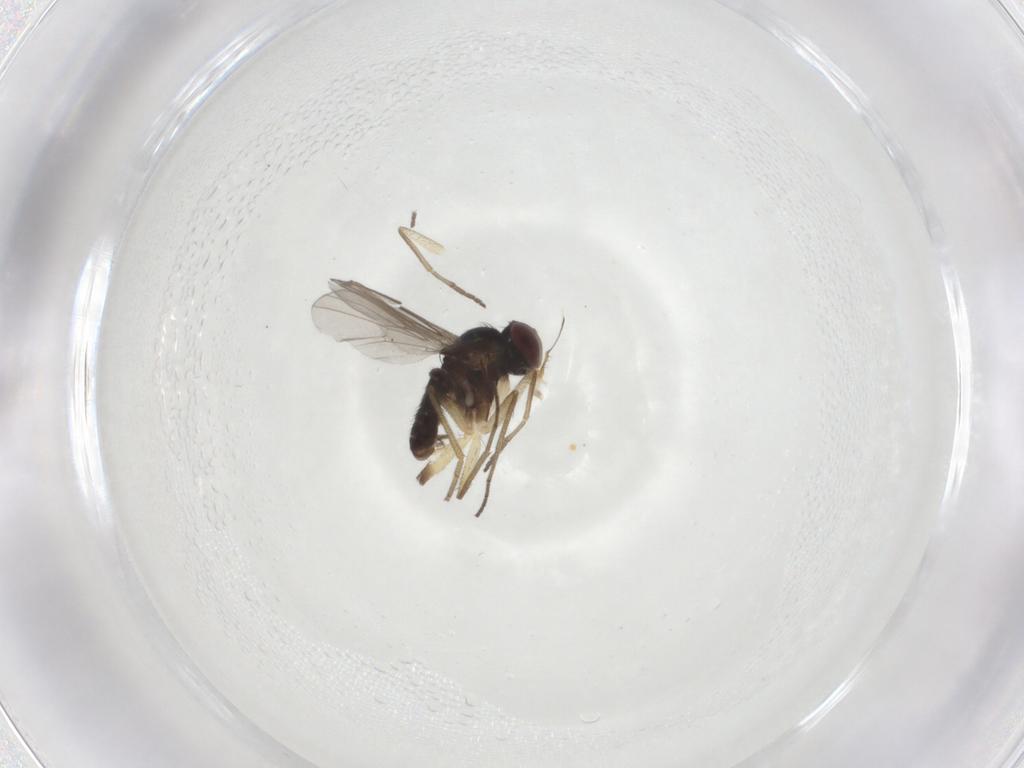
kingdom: Animalia
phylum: Arthropoda
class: Insecta
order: Diptera
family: Dolichopodidae
